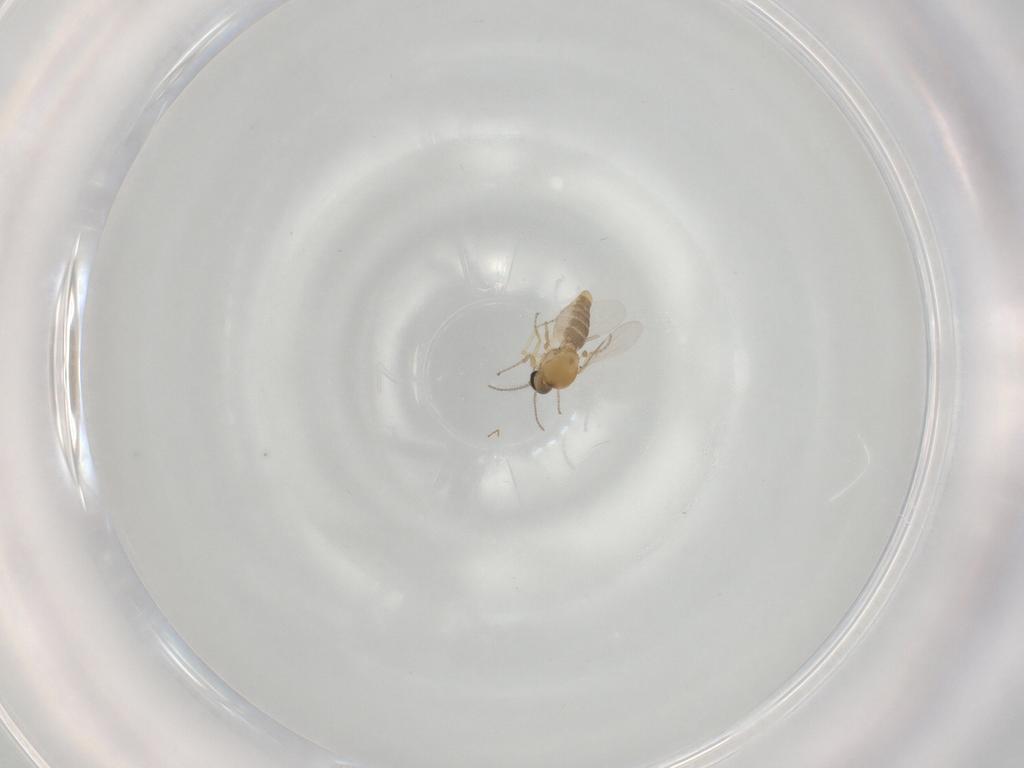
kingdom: Animalia
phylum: Arthropoda
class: Insecta
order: Diptera
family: Ceratopogonidae
